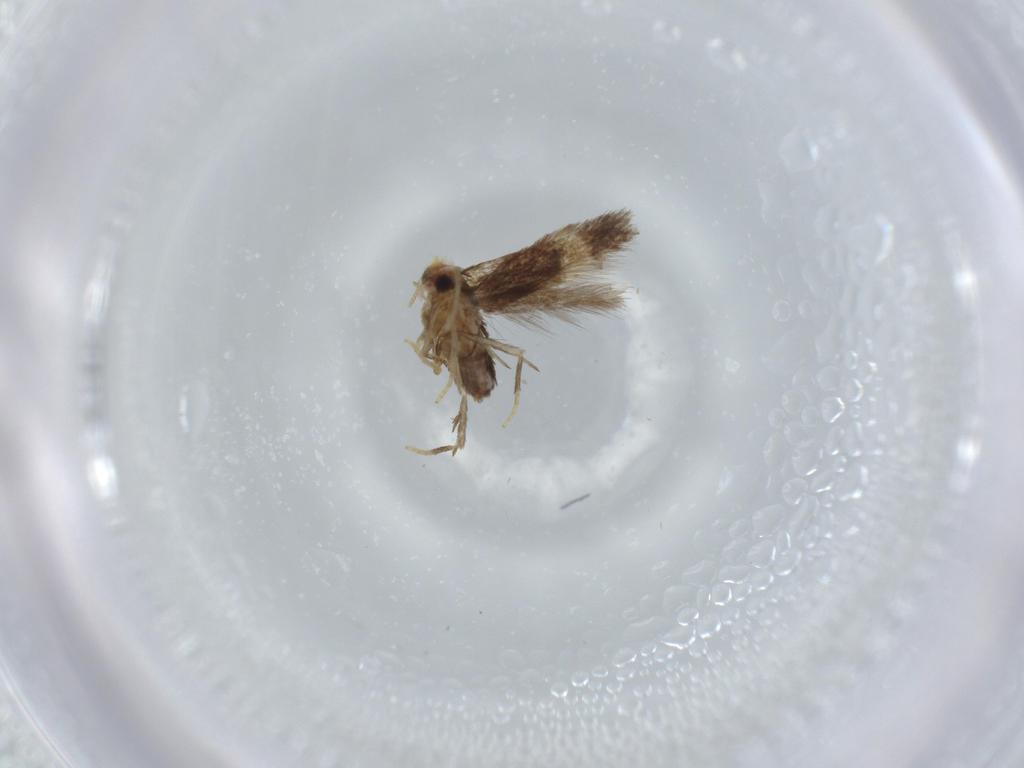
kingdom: Animalia
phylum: Arthropoda
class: Insecta
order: Lepidoptera
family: Nepticulidae
